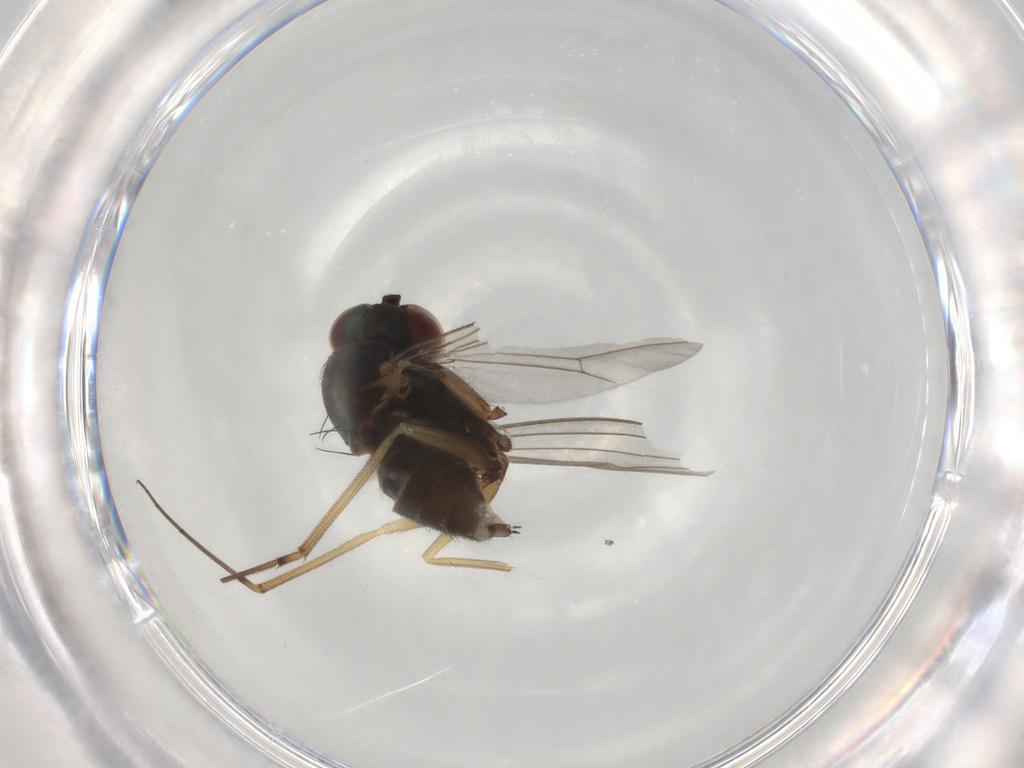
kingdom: Animalia
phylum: Arthropoda
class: Insecta
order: Diptera
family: Dolichopodidae
